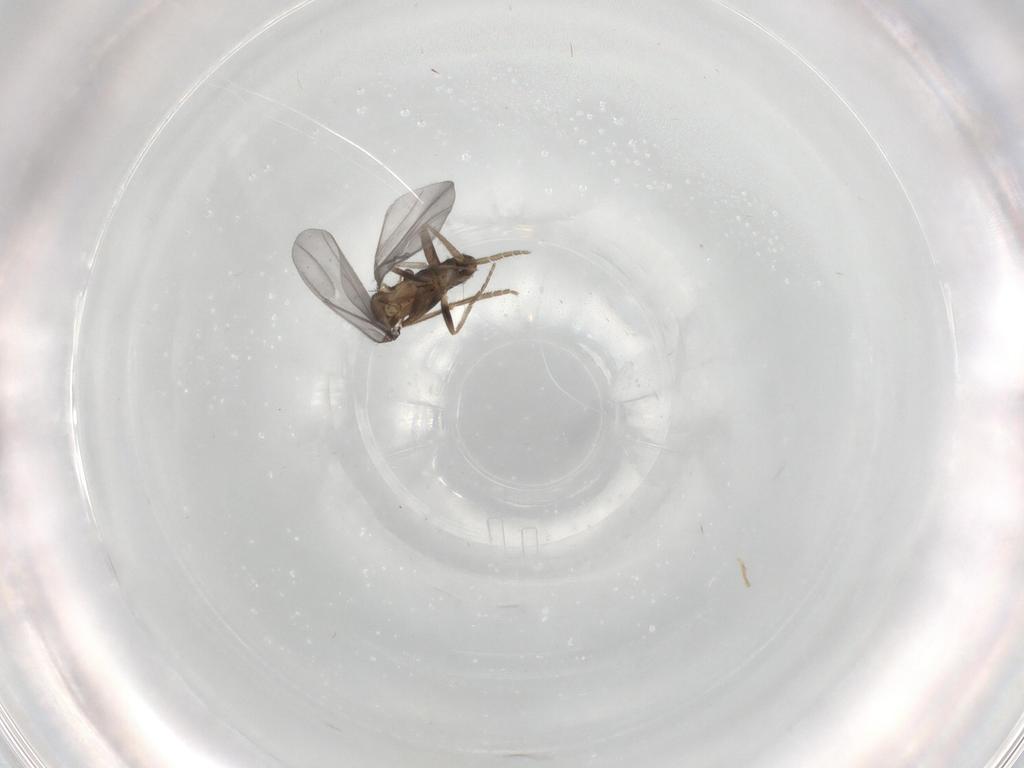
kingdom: Animalia
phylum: Arthropoda
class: Insecta
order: Diptera
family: Phoridae
